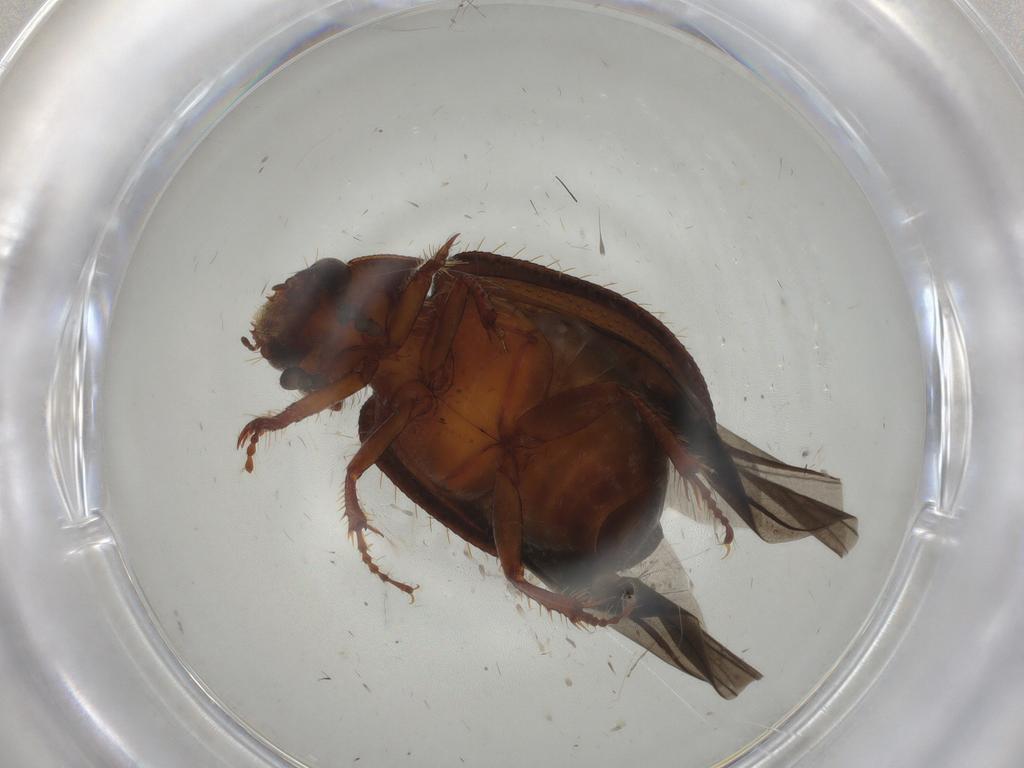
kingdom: Animalia
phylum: Arthropoda
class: Insecta
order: Coleoptera
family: Hybosoridae
